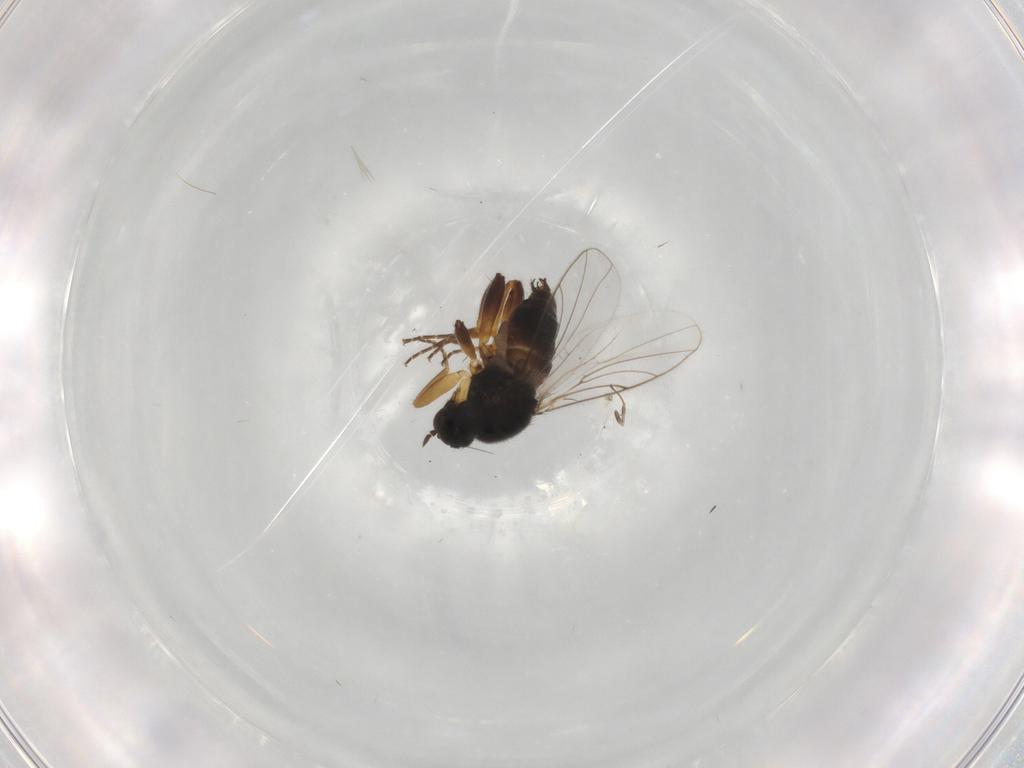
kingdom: Animalia
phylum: Arthropoda
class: Insecta
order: Diptera
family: Hybotidae
